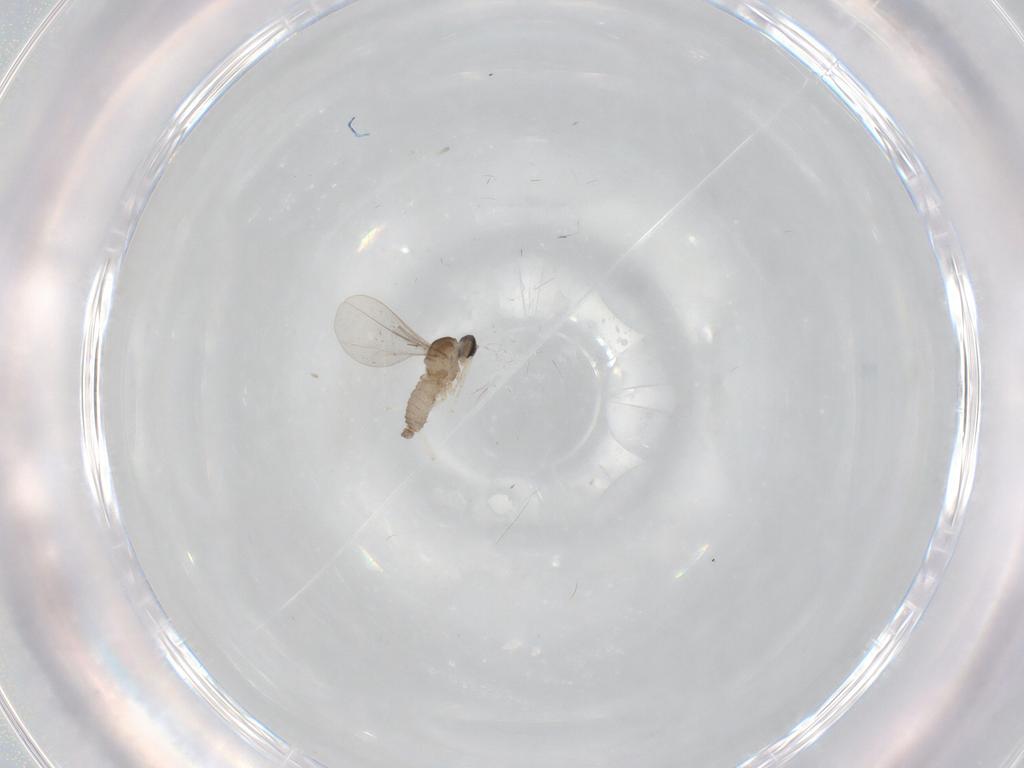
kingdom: Animalia
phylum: Arthropoda
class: Insecta
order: Diptera
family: Cecidomyiidae
